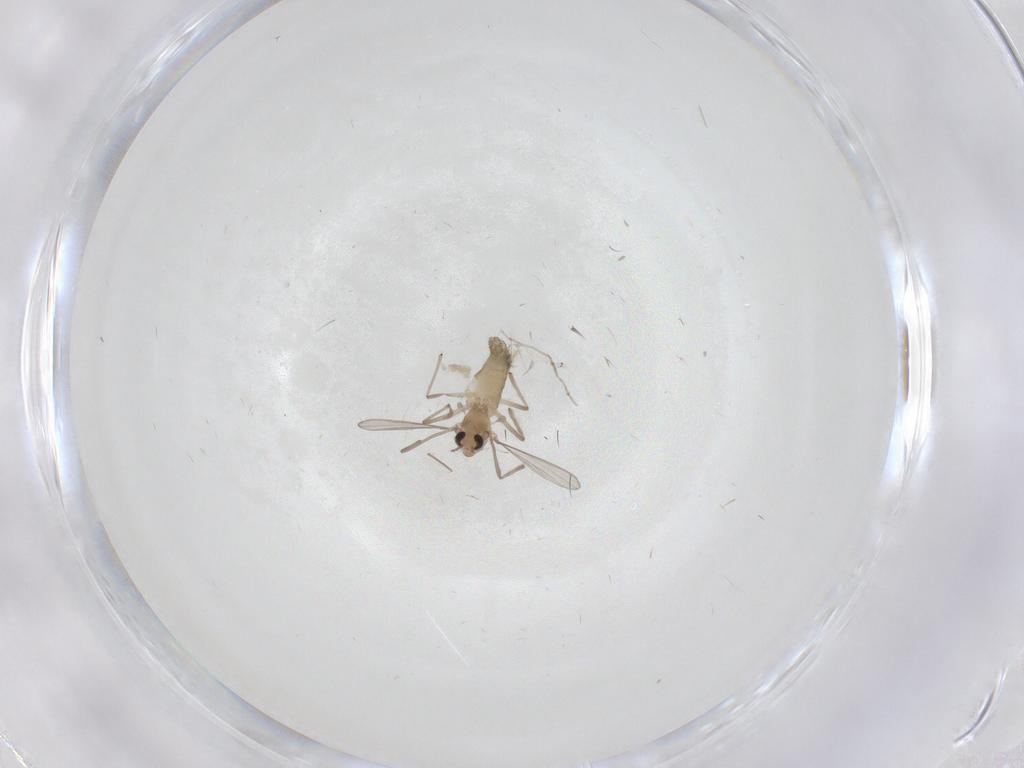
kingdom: Animalia
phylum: Arthropoda
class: Insecta
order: Diptera
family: Chironomidae
